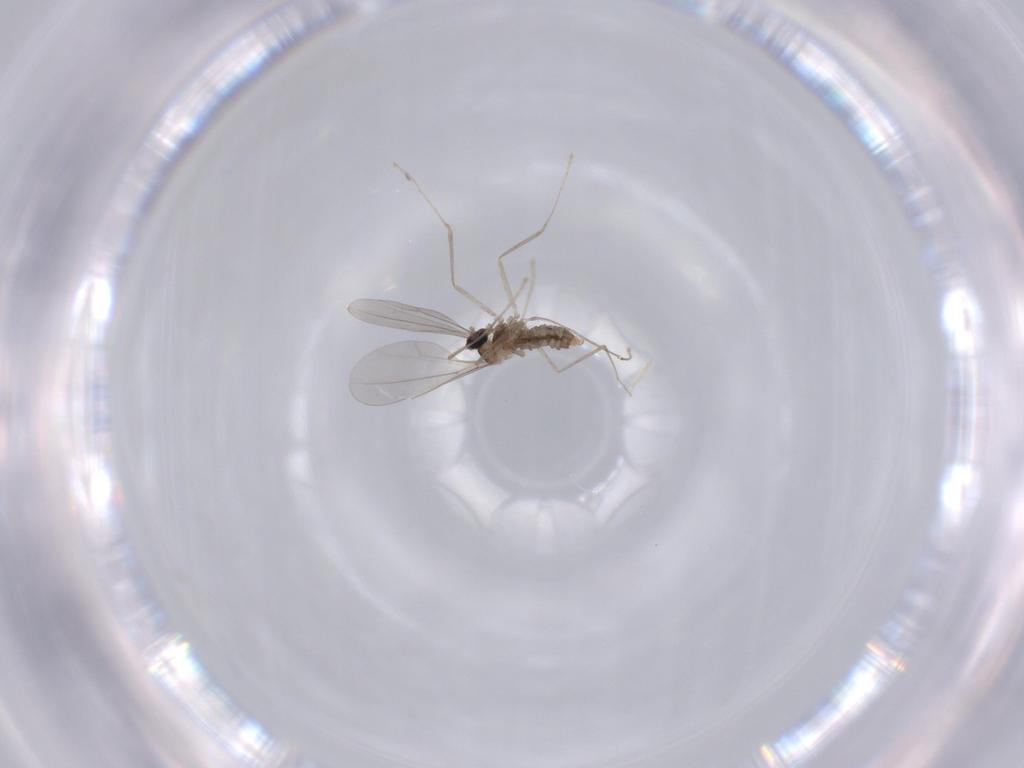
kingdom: Animalia
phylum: Arthropoda
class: Insecta
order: Diptera
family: Cecidomyiidae
